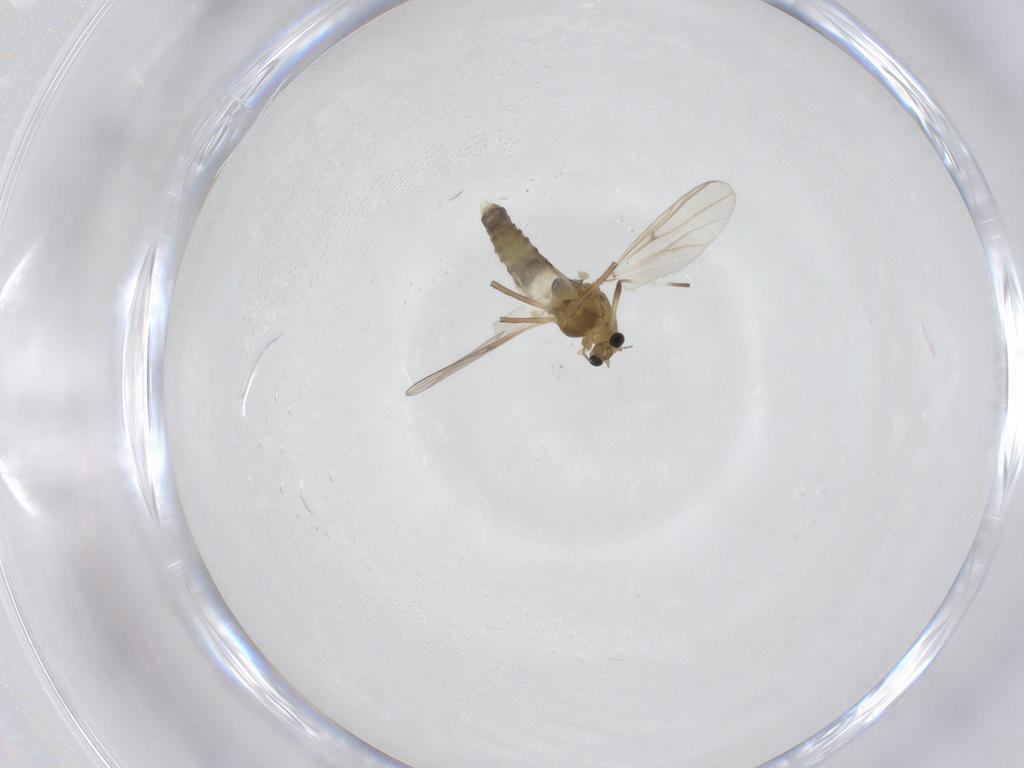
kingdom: Animalia
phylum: Arthropoda
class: Insecta
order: Diptera
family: Chironomidae
